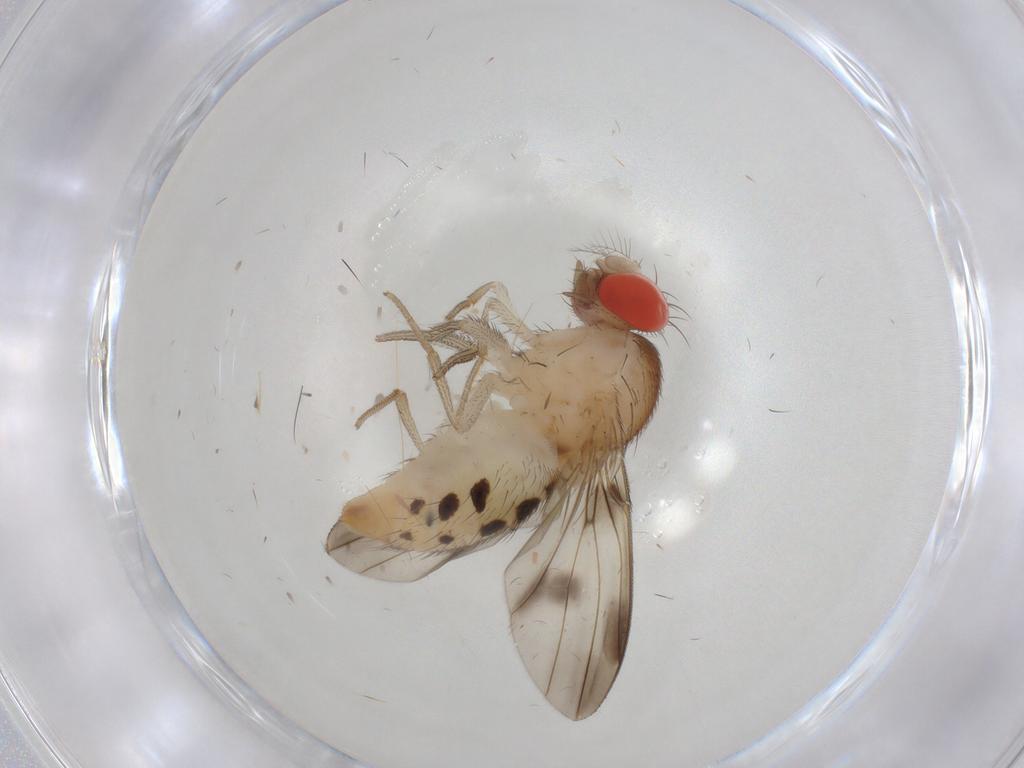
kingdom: Animalia
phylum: Arthropoda
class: Insecta
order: Diptera
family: Drosophilidae
